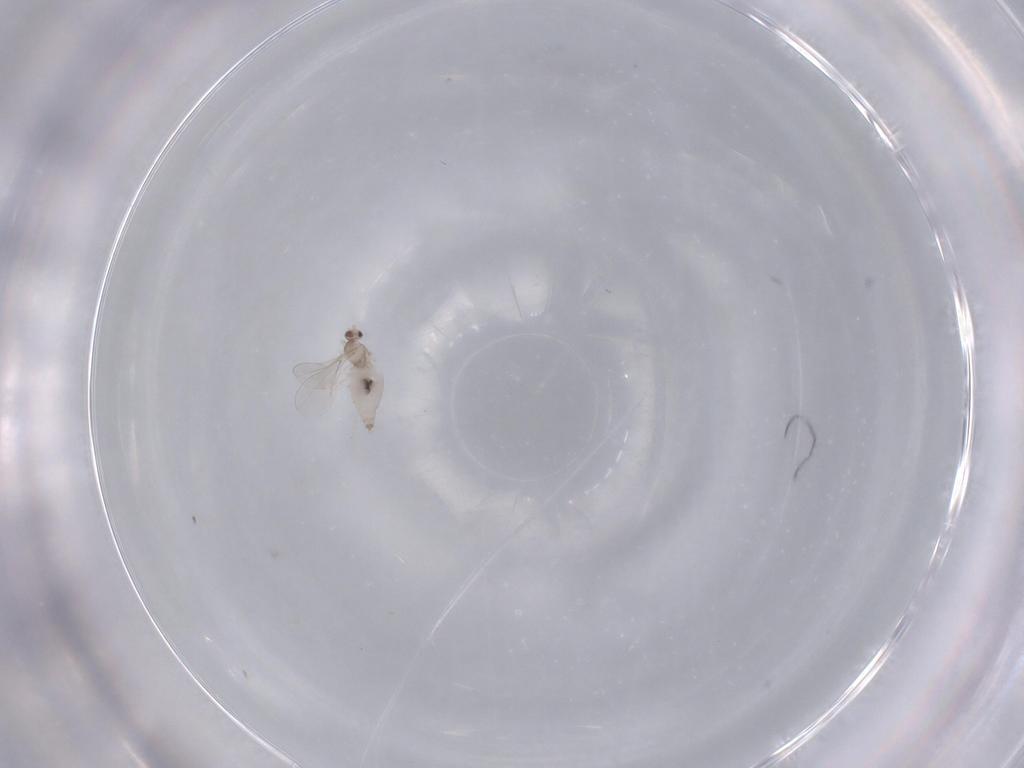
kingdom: Animalia
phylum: Arthropoda
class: Insecta
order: Diptera
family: Cecidomyiidae
